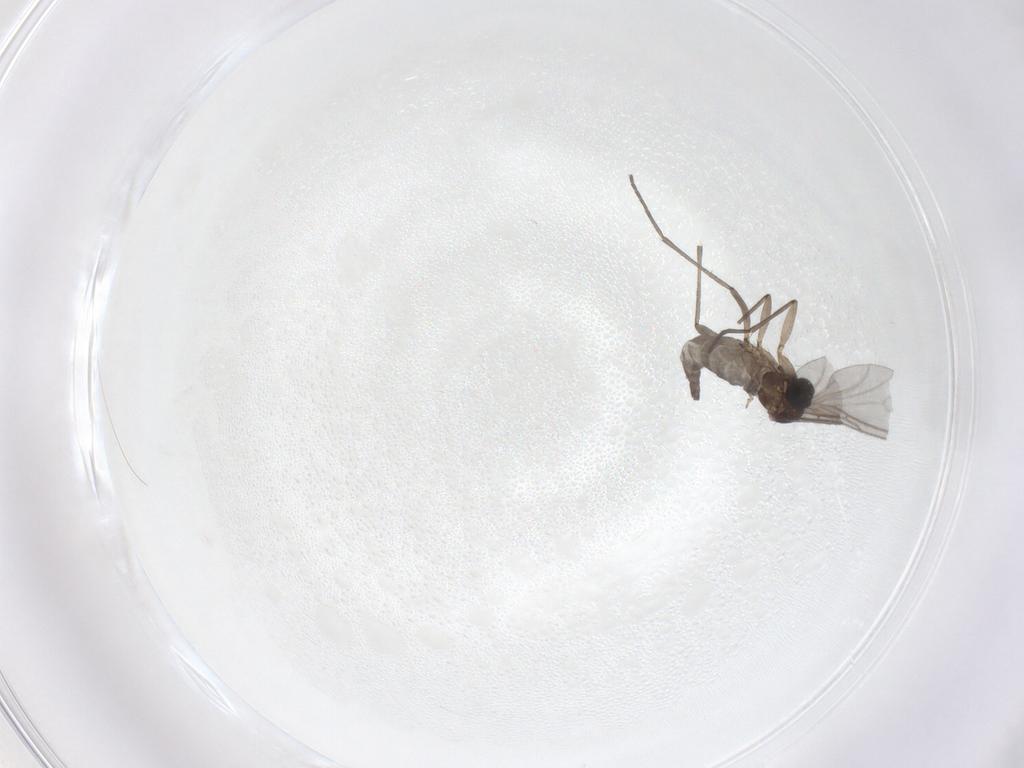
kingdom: Animalia
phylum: Arthropoda
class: Insecta
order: Diptera
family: Sciaridae
